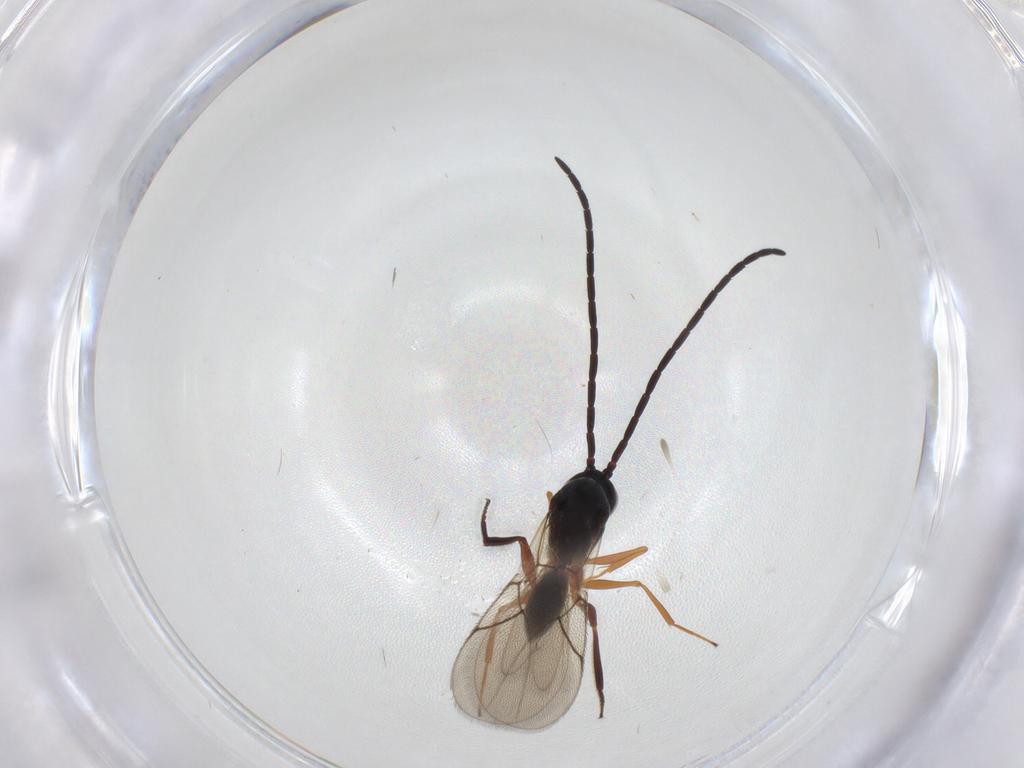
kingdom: Animalia
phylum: Arthropoda
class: Insecta
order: Hymenoptera
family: Figitidae
